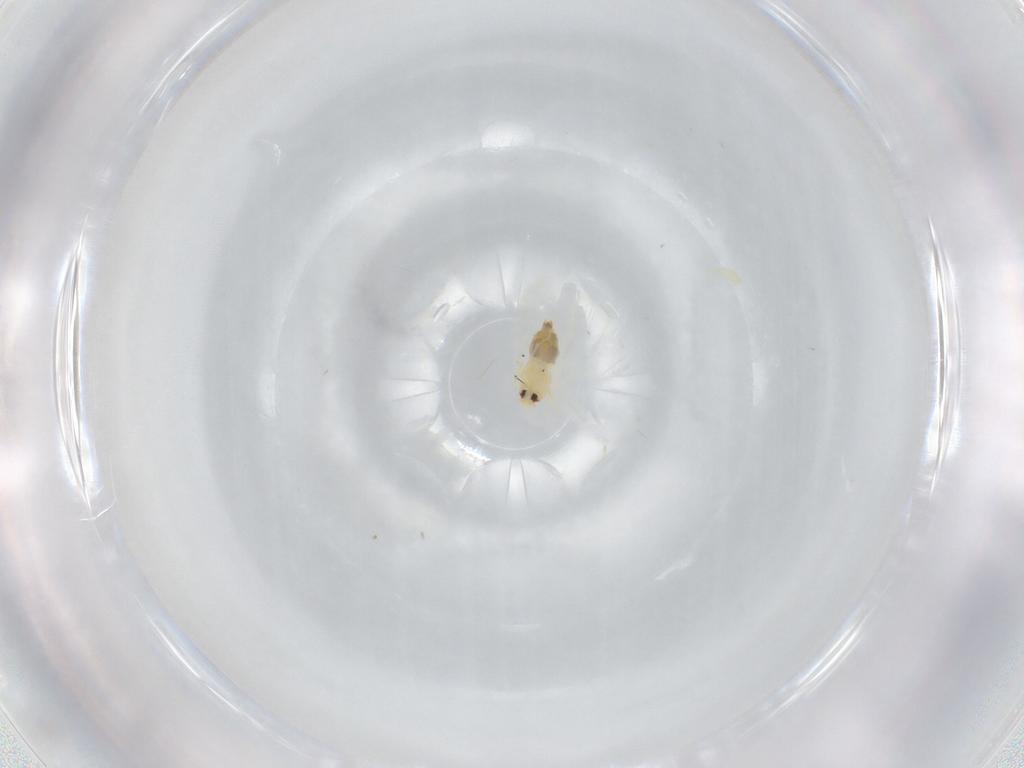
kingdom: Animalia
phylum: Arthropoda
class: Insecta
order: Hemiptera
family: Aleyrodidae
